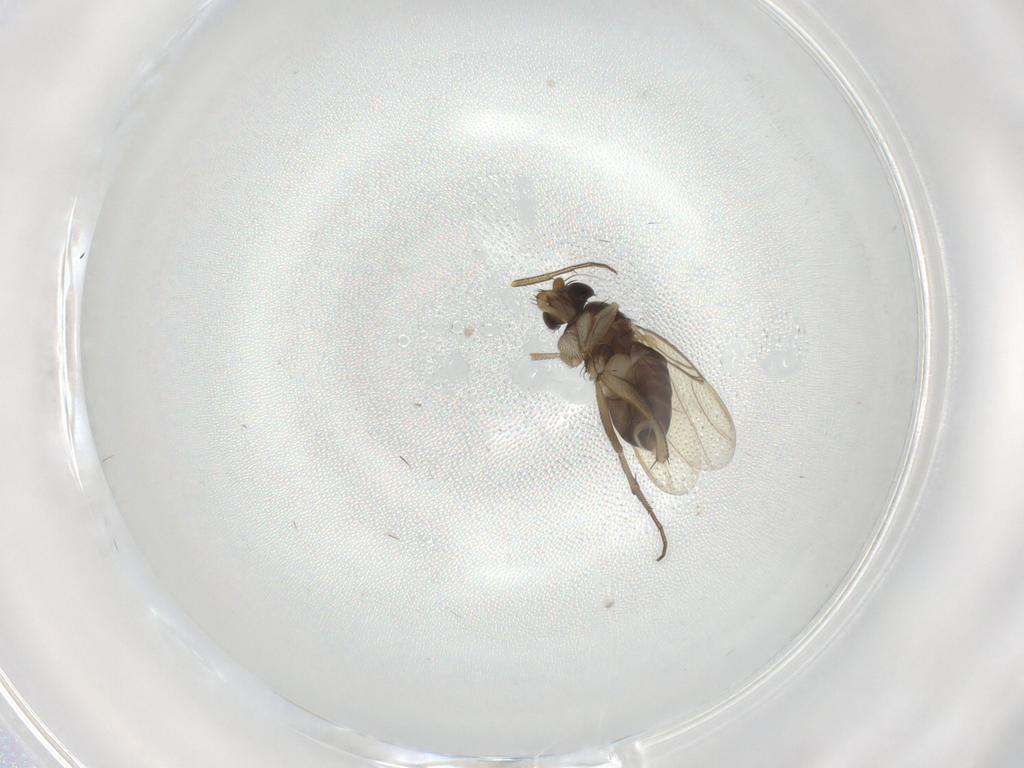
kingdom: Animalia
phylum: Arthropoda
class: Insecta
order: Diptera
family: Phoridae
